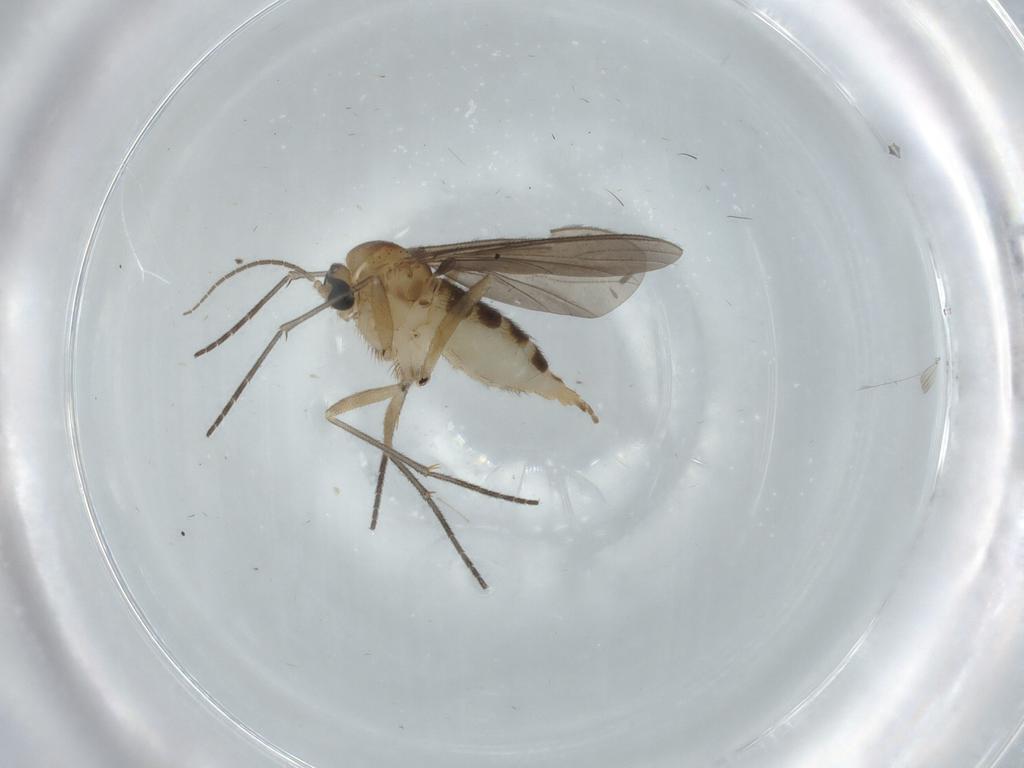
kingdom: Animalia
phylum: Arthropoda
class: Insecta
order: Diptera
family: Sciaridae
